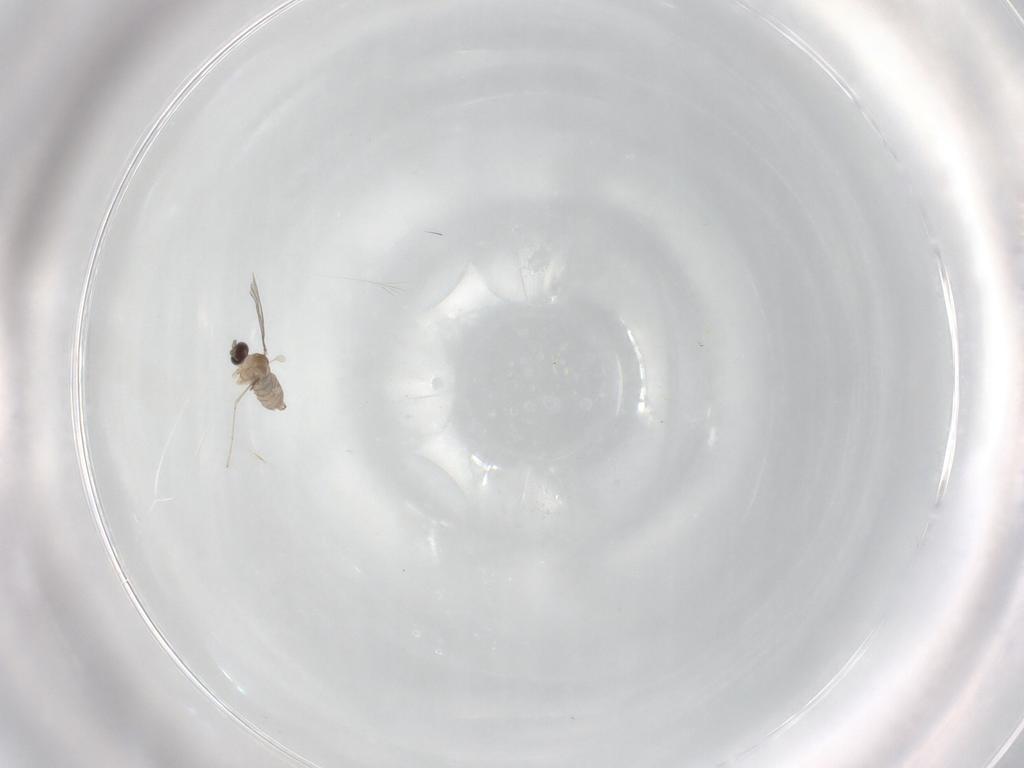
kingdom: Animalia
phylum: Arthropoda
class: Insecta
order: Diptera
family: Cecidomyiidae
